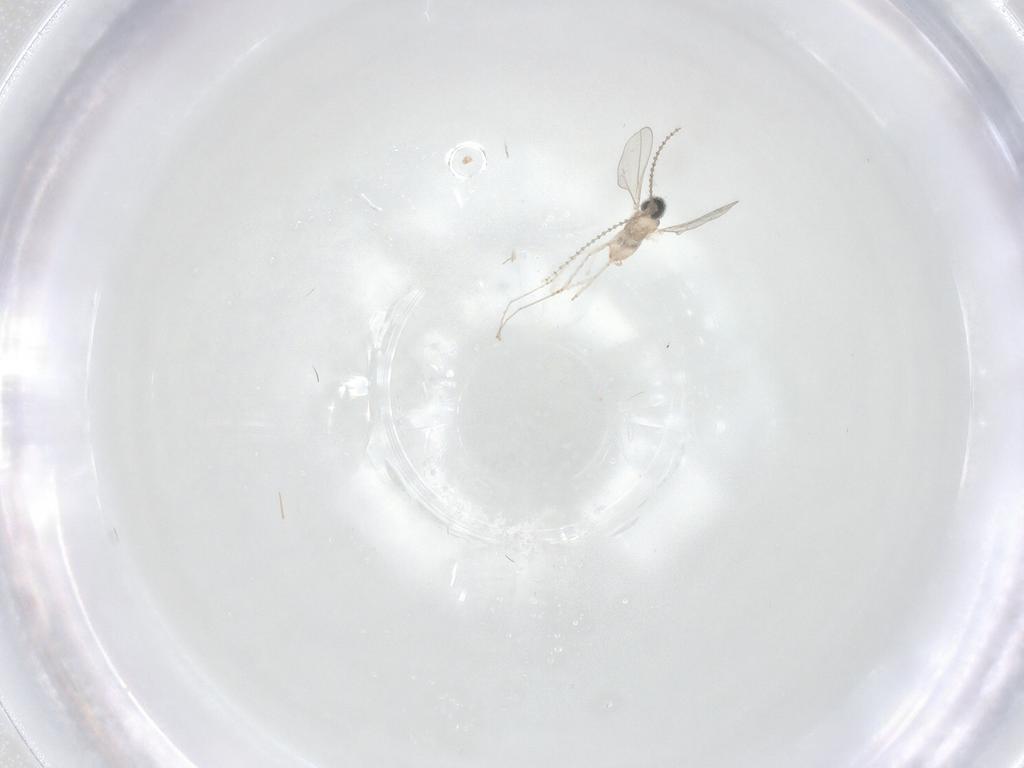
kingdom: Animalia
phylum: Arthropoda
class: Insecta
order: Diptera
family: Cecidomyiidae
